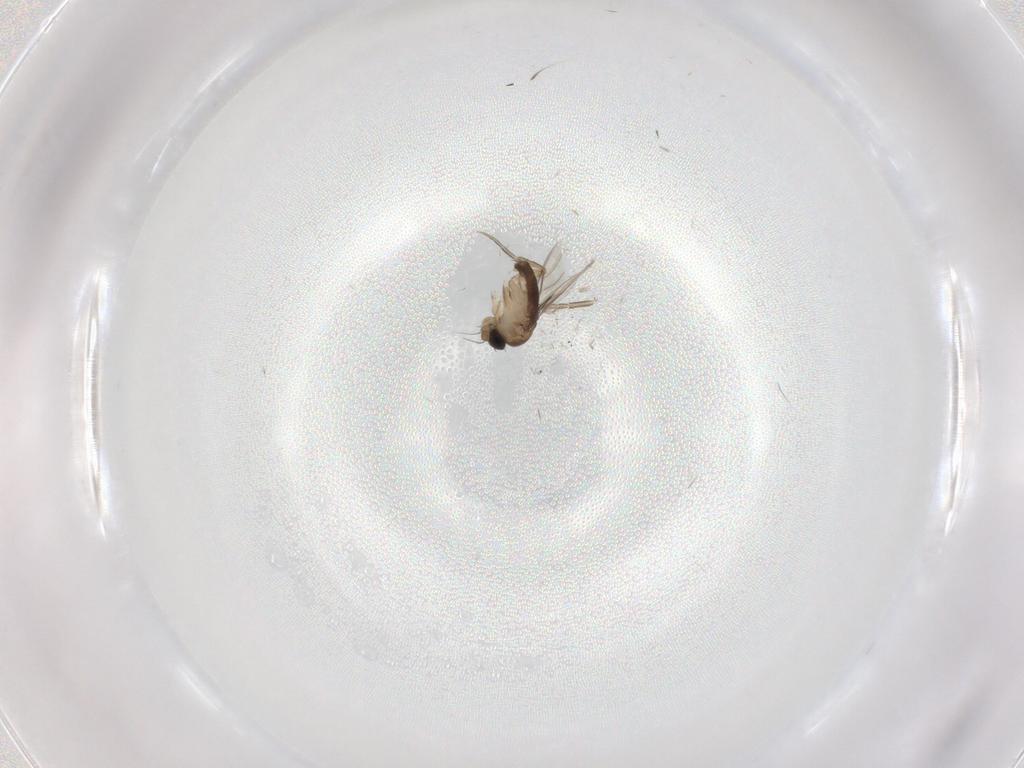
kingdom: Animalia
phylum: Arthropoda
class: Insecta
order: Diptera
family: Phoridae
